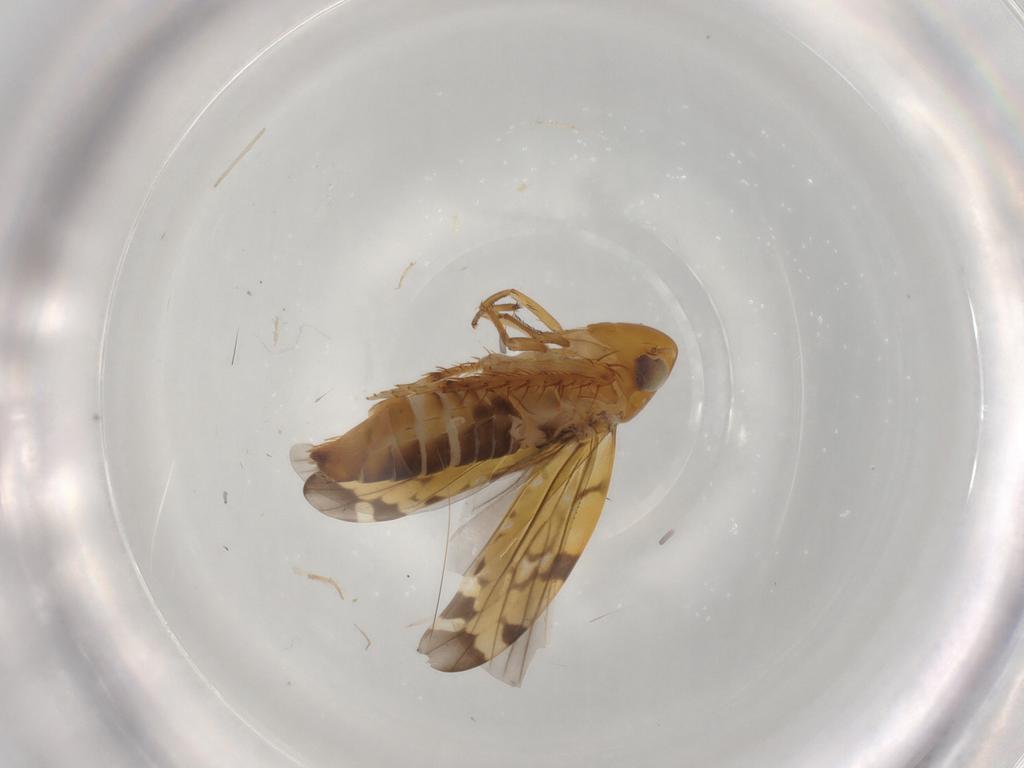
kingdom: Animalia
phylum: Arthropoda
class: Insecta
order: Hemiptera
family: Cicadellidae
